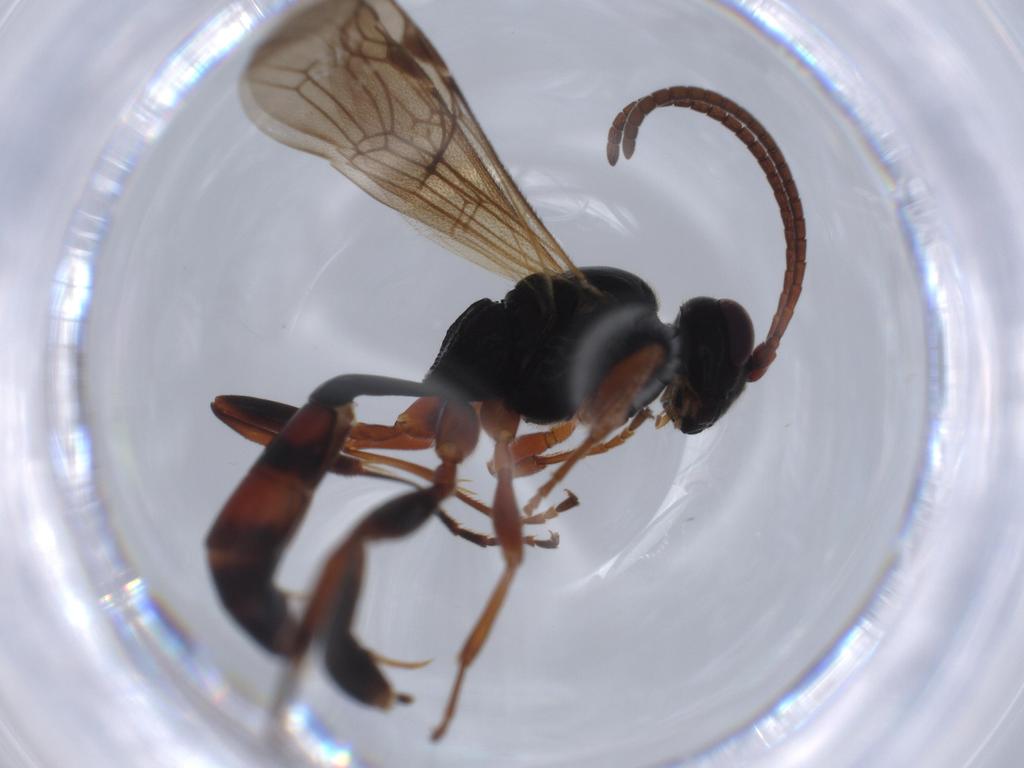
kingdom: Animalia
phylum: Arthropoda
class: Insecta
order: Hymenoptera
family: Ichneumonidae
